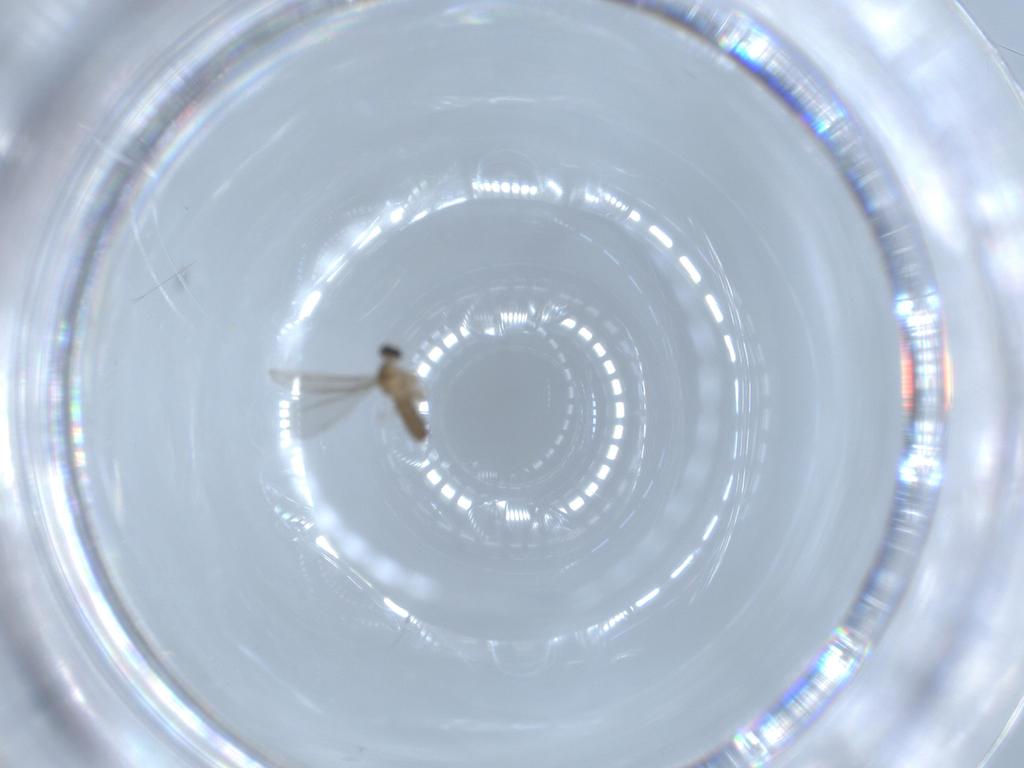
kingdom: Animalia
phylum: Arthropoda
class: Insecta
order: Diptera
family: Cecidomyiidae
